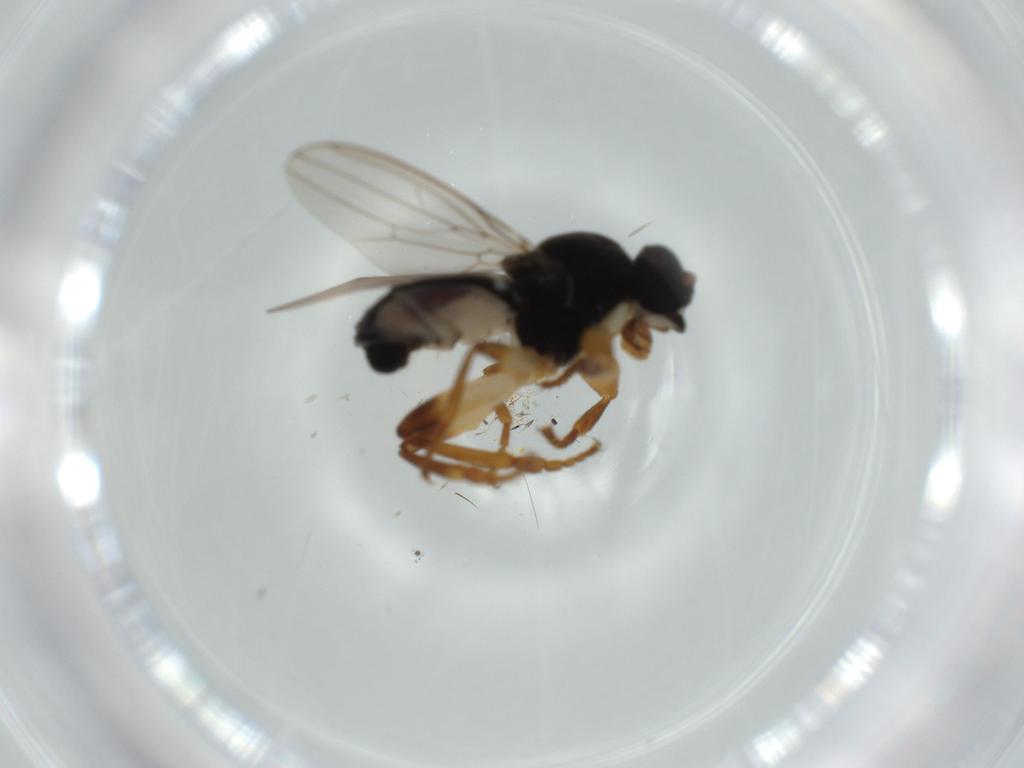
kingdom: Animalia
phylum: Arthropoda
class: Insecta
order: Diptera
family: Sphaeroceridae
